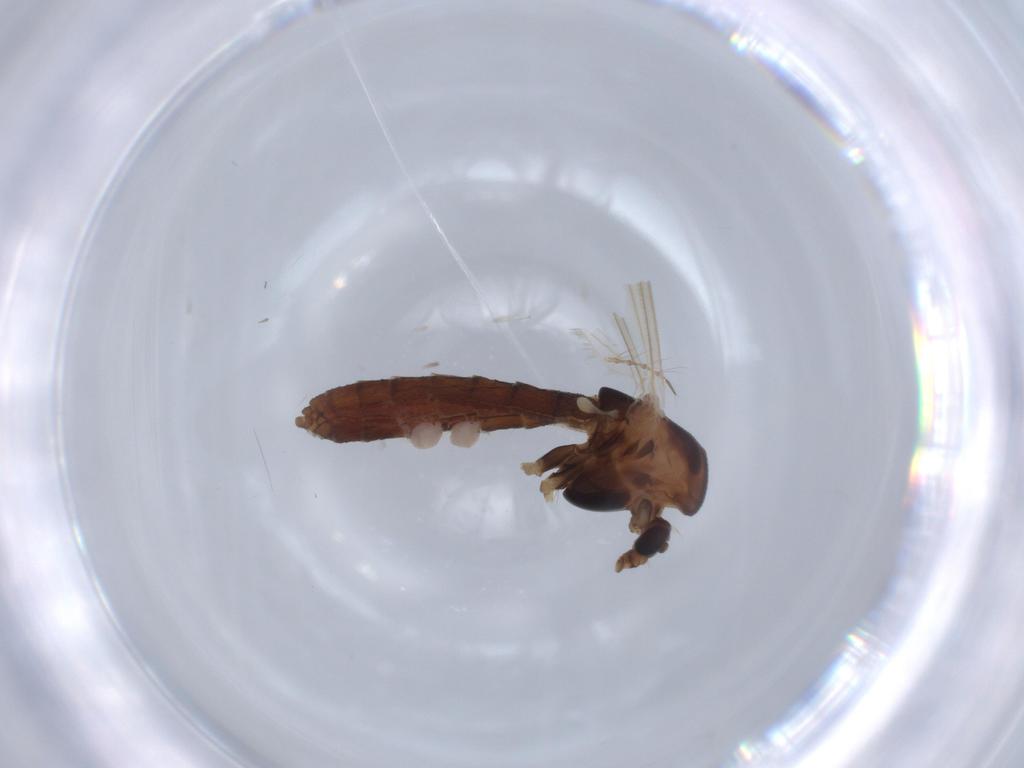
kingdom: Animalia
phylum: Arthropoda
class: Insecta
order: Diptera
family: Chironomidae
